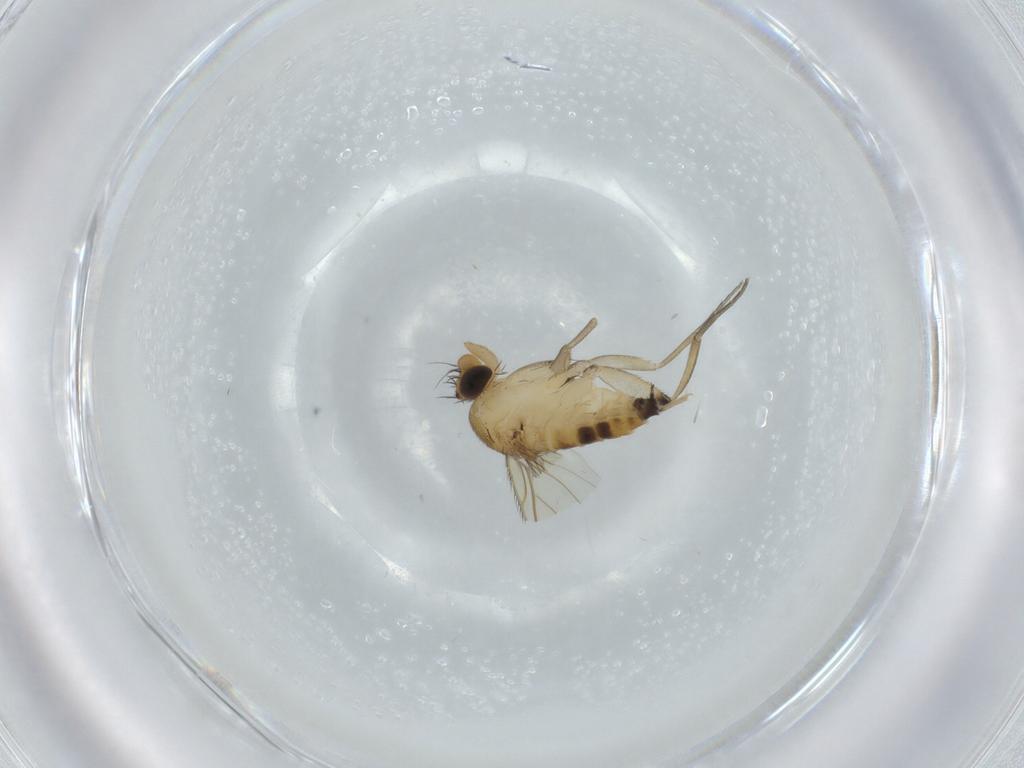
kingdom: Animalia
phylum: Arthropoda
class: Insecta
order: Diptera
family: Phoridae
